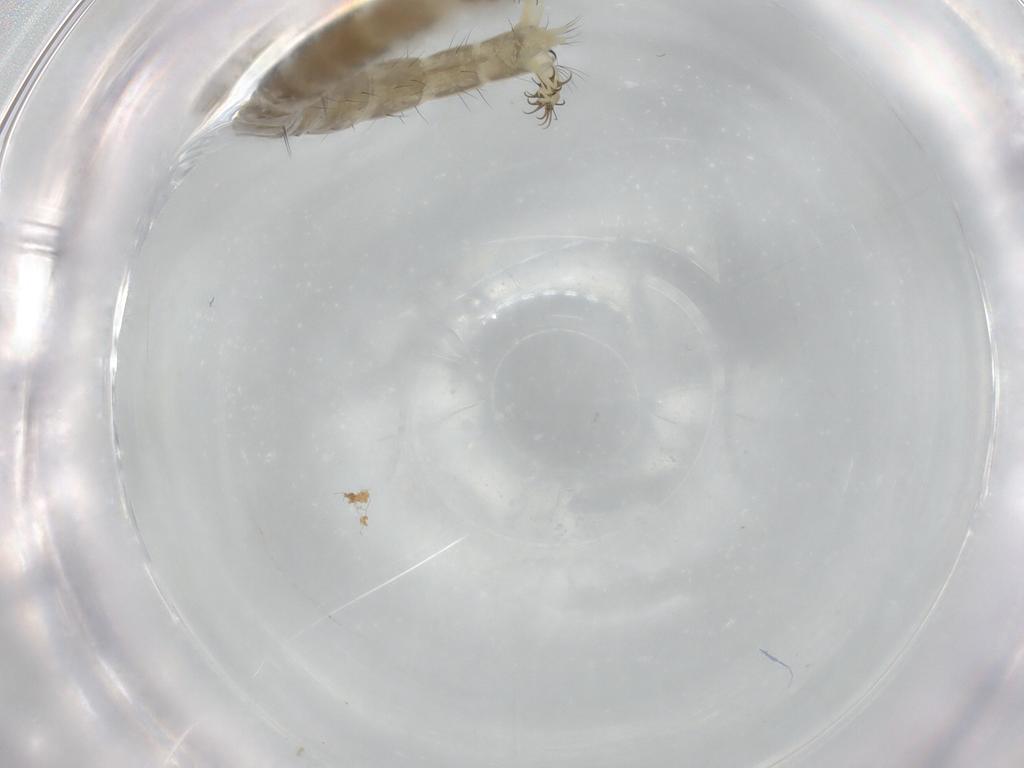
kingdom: Animalia
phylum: Arthropoda
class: Insecta
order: Diptera
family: Chironomidae
